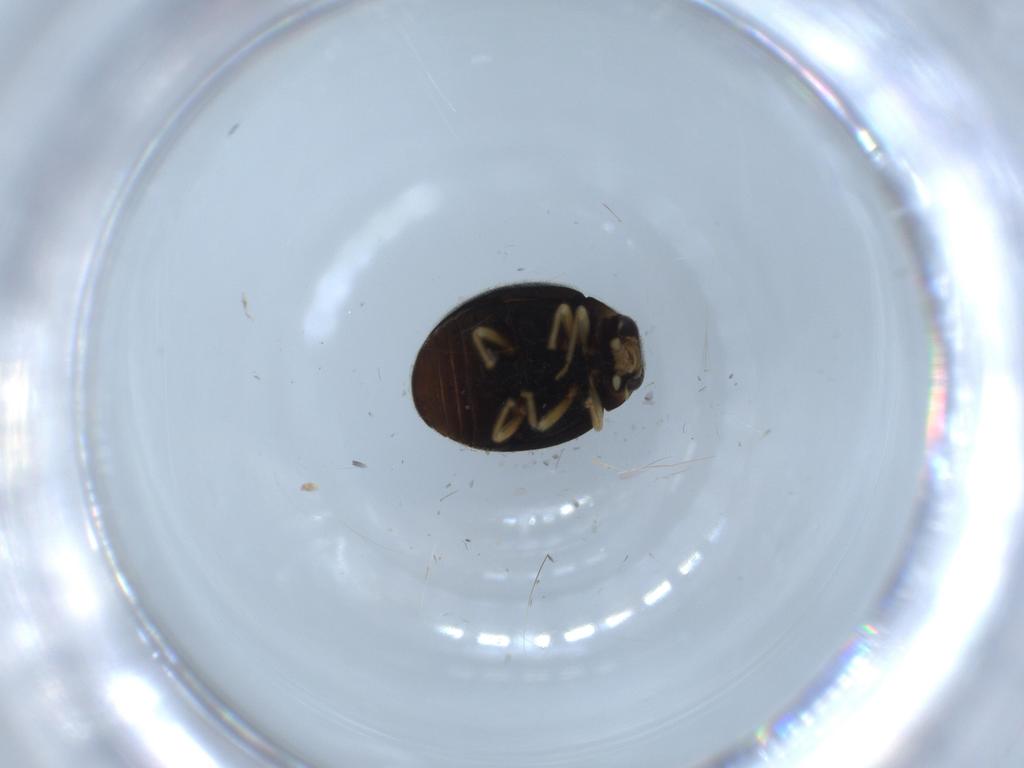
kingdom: Animalia
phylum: Arthropoda
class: Insecta
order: Coleoptera
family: Coccinellidae
